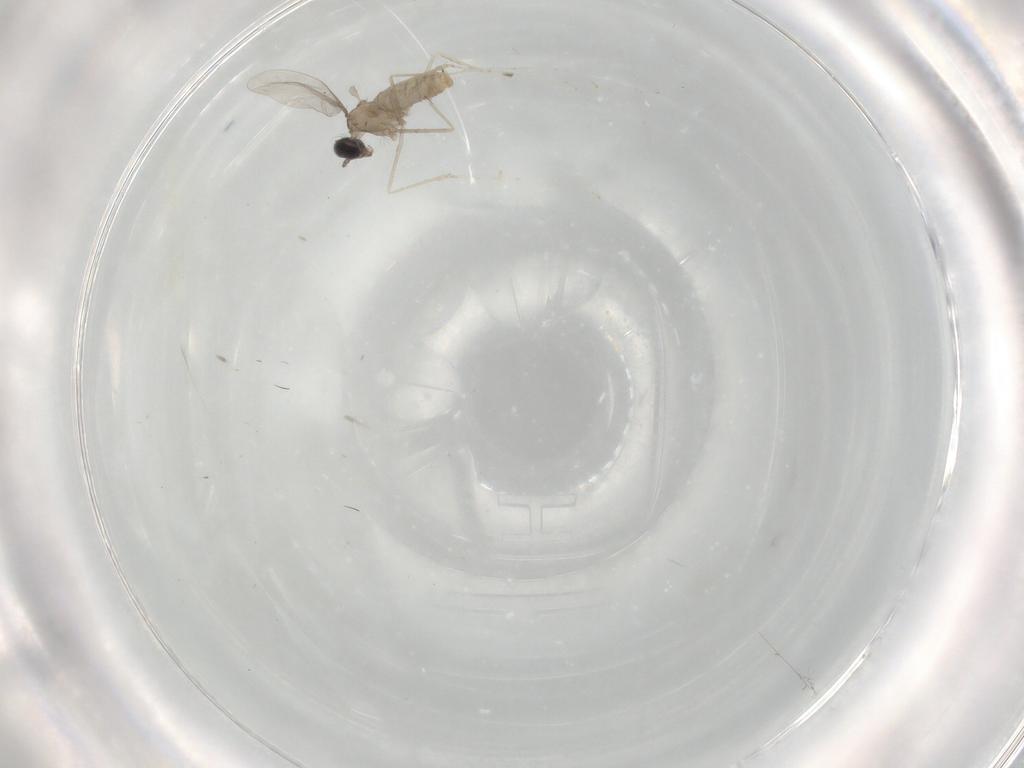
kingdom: Animalia
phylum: Arthropoda
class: Insecta
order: Diptera
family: Tabanidae
